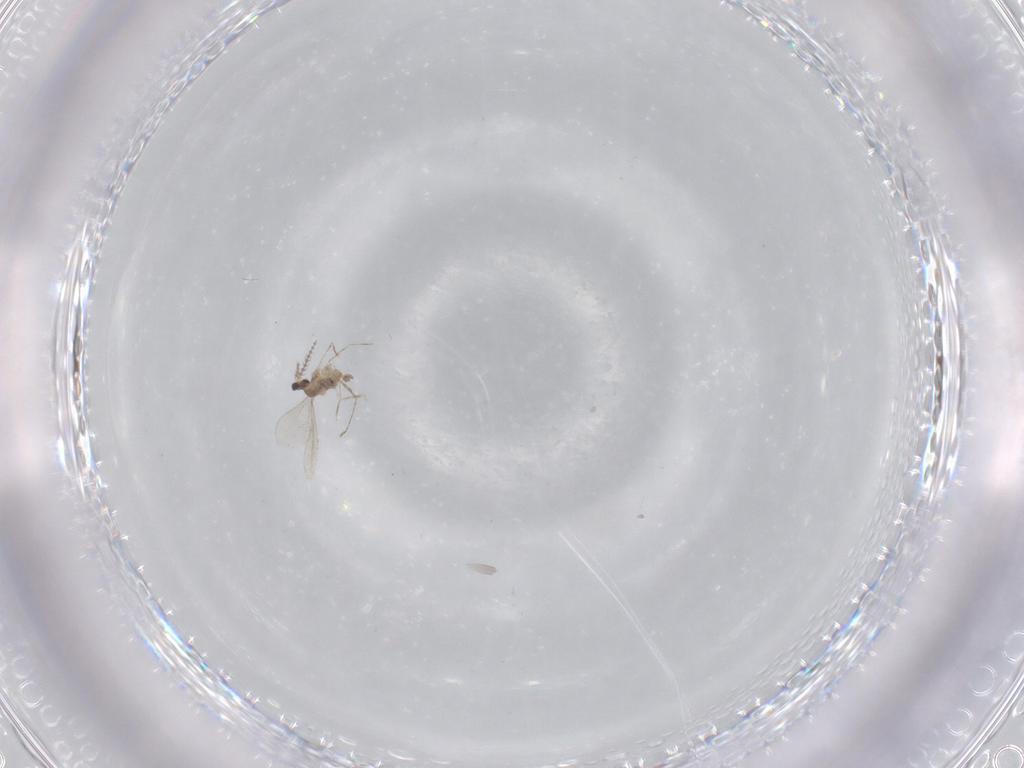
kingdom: Animalia
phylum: Arthropoda
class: Insecta
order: Diptera
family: Cecidomyiidae
